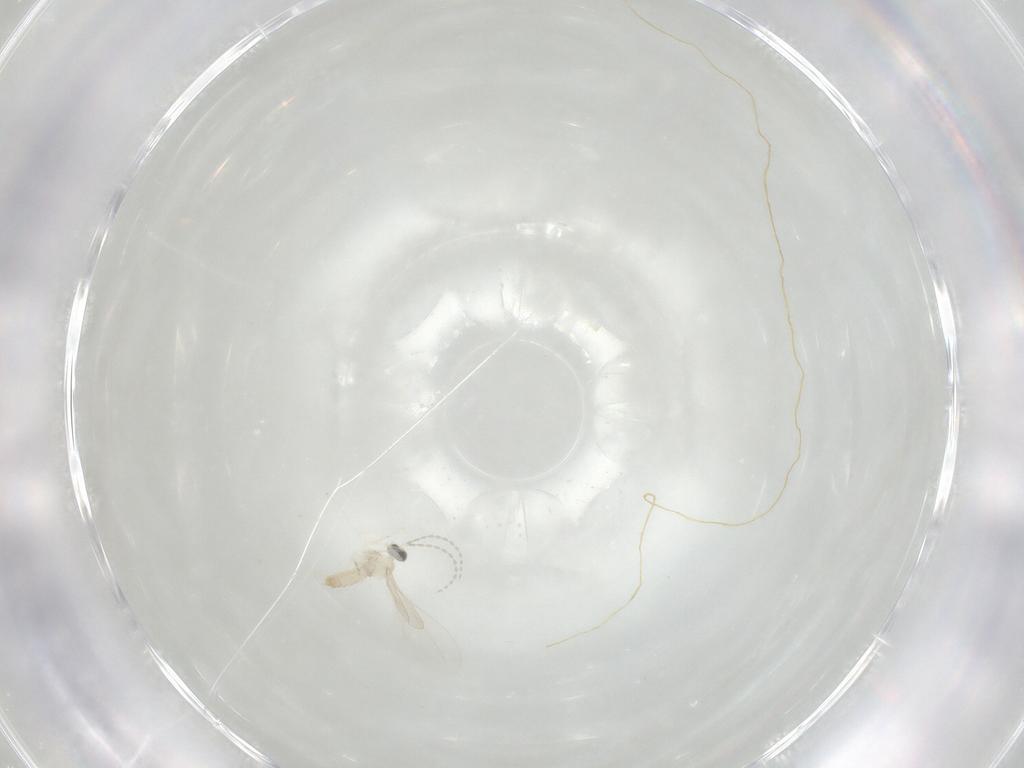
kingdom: Animalia
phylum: Arthropoda
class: Insecta
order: Diptera
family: Cecidomyiidae
